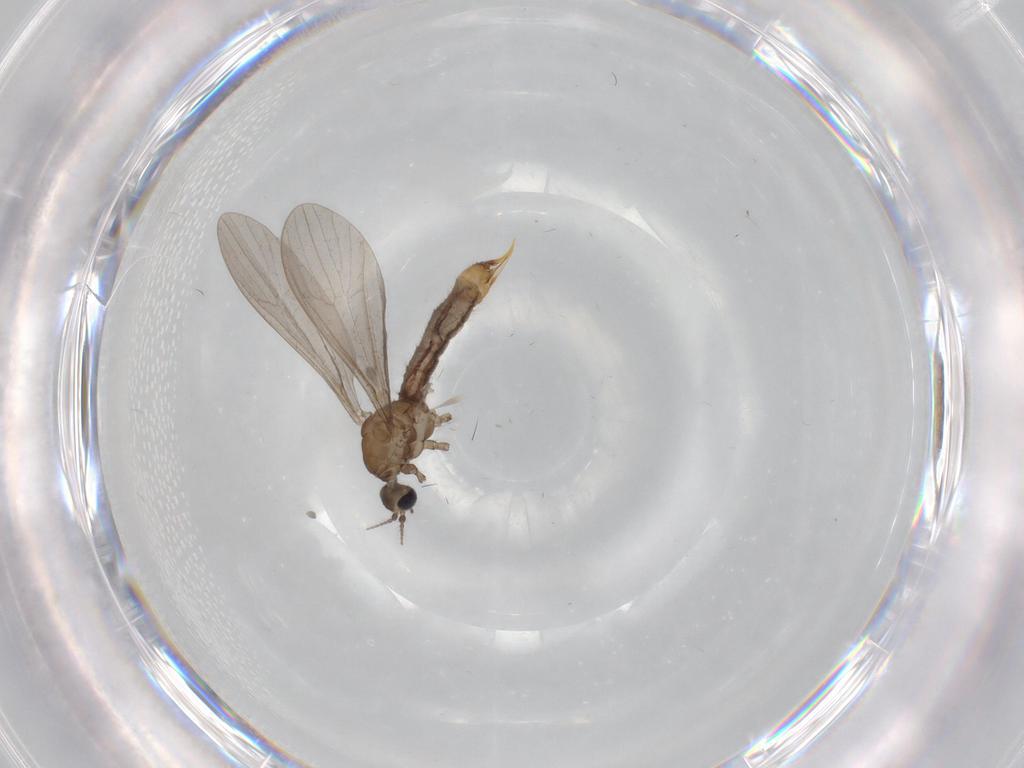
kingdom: Animalia
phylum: Arthropoda
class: Insecta
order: Diptera
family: Limoniidae
